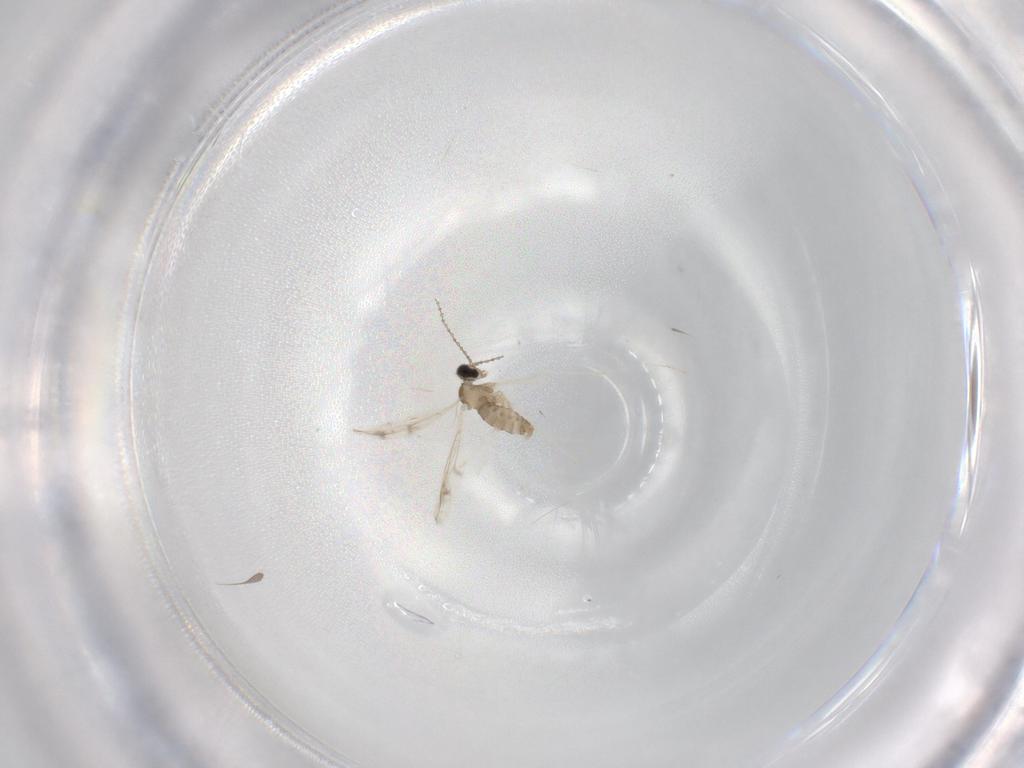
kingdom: Animalia
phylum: Arthropoda
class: Insecta
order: Diptera
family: Cecidomyiidae
